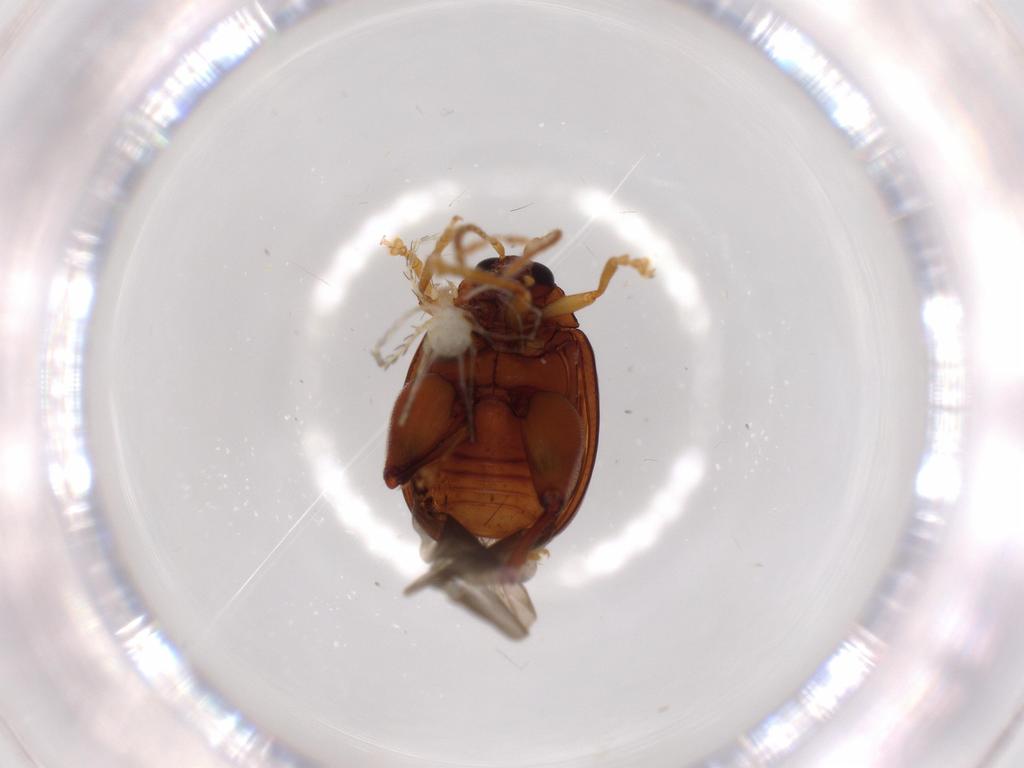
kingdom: Animalia
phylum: Arthropoda
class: Arachnida
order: Trombidiformes
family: Erythraeidae
